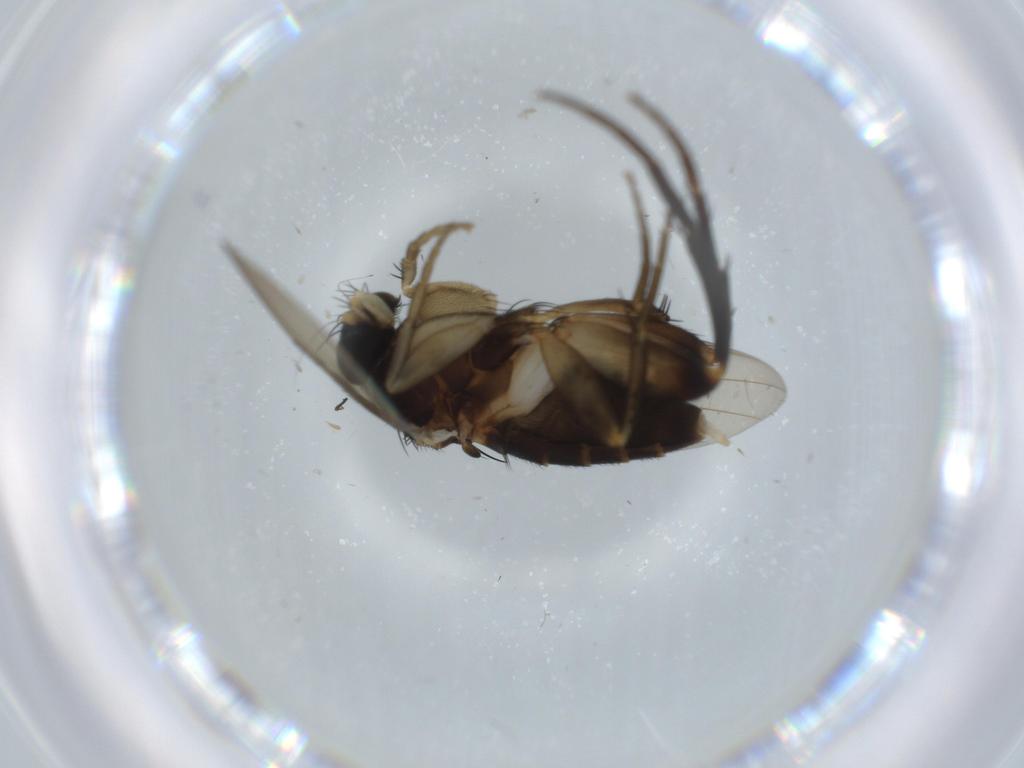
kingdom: Animalia
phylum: Arthropoda
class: Insecta
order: Diptera
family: Phoridae
